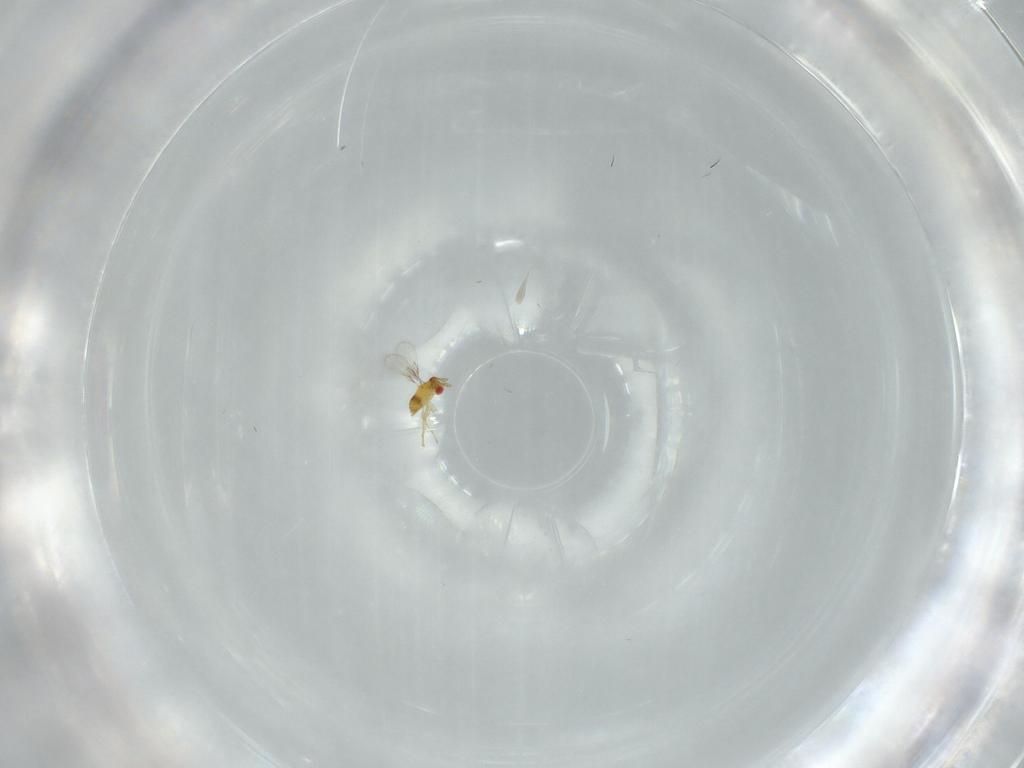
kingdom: Animalia
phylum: Arthropoda
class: Insecta
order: Hymenoptera
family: Trichogrammatidae
